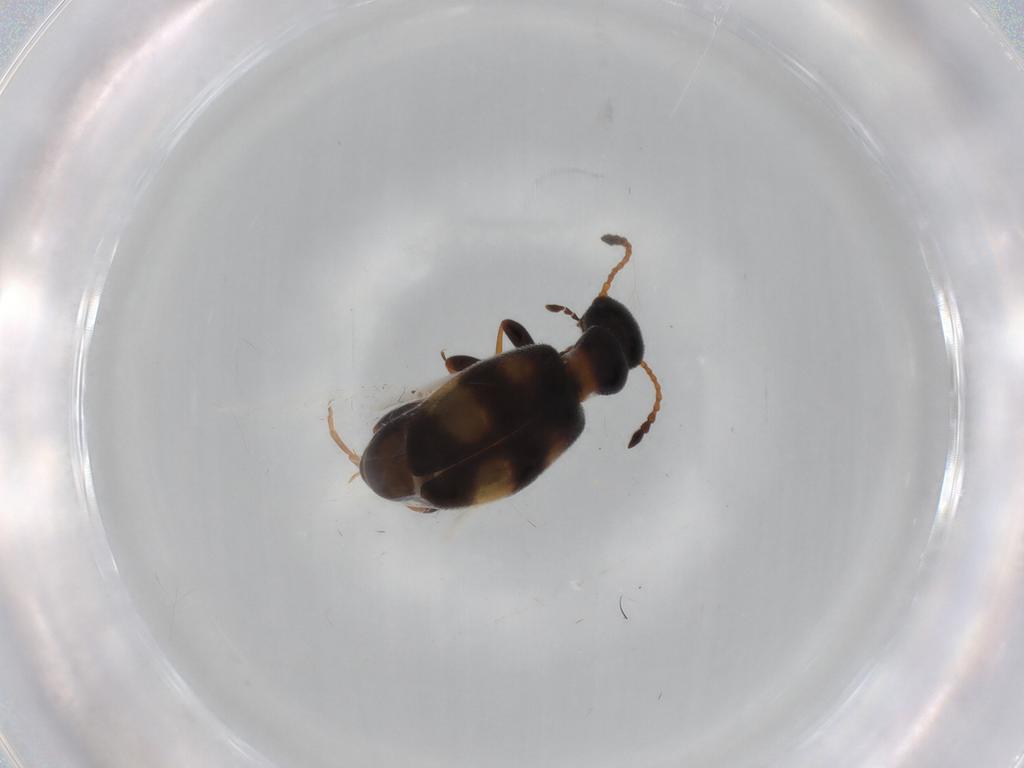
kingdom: Animalia
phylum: Arthropoda
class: Insecta
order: Coleoptera
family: Anthicidae
